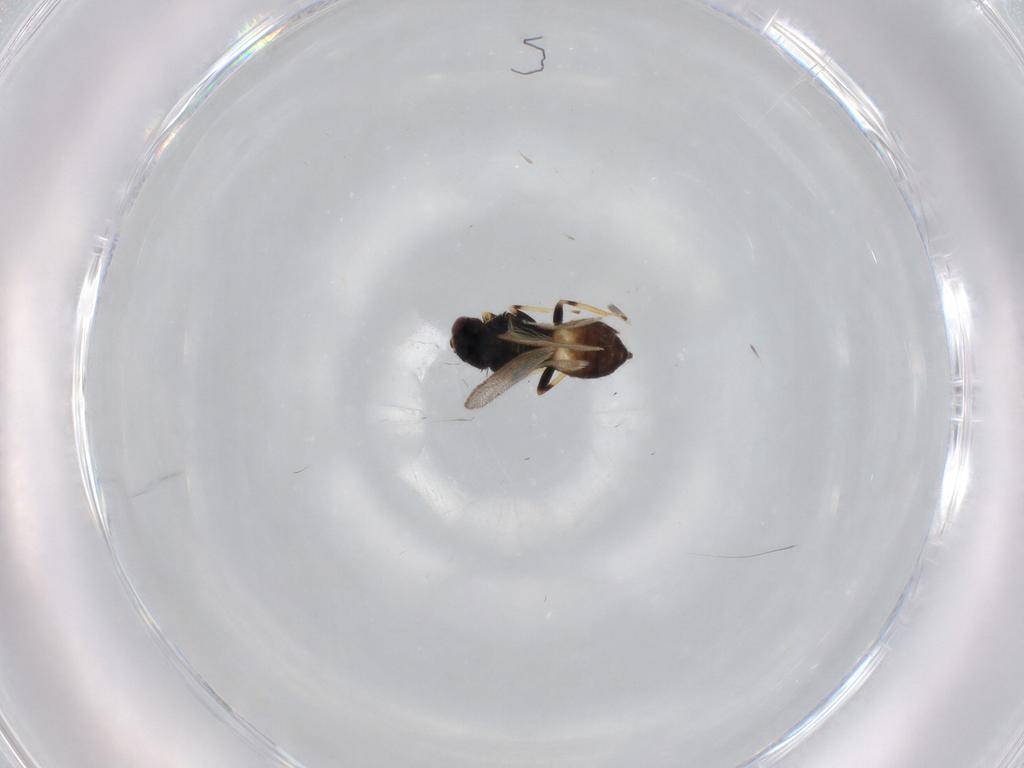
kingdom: Animalia
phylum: Arthropoda
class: Insecta
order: Hymenoptera
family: Eulophidae
